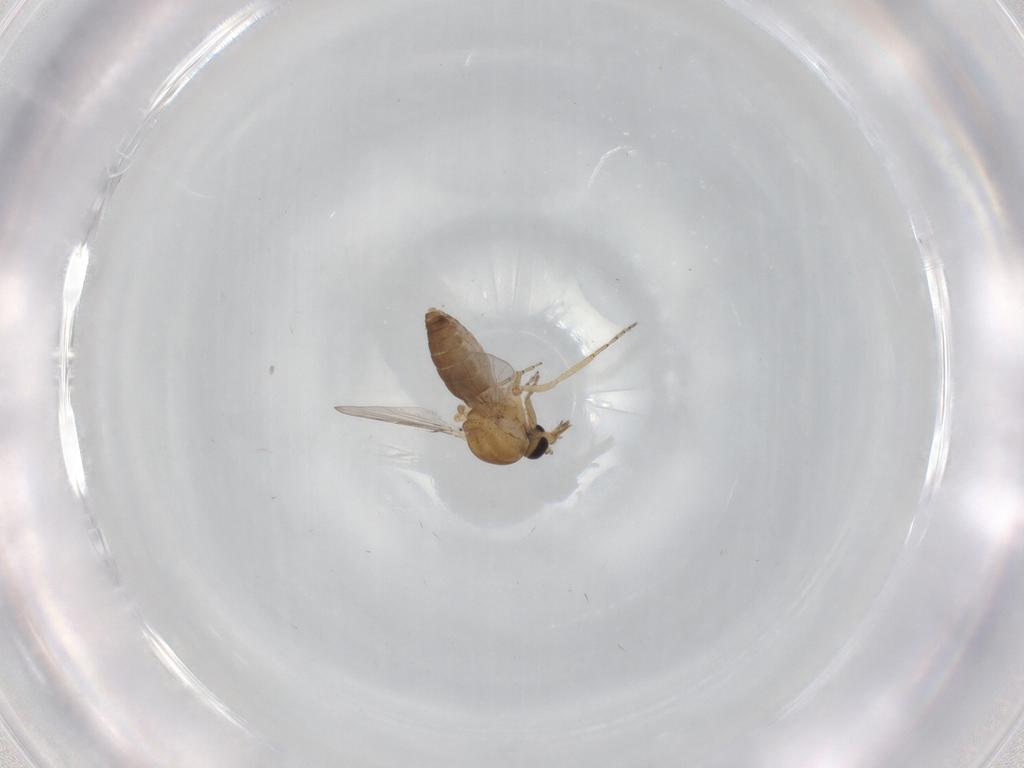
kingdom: Animalia
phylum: Arthropoda
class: Insecta
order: Diptera
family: Ceratopogonidae
